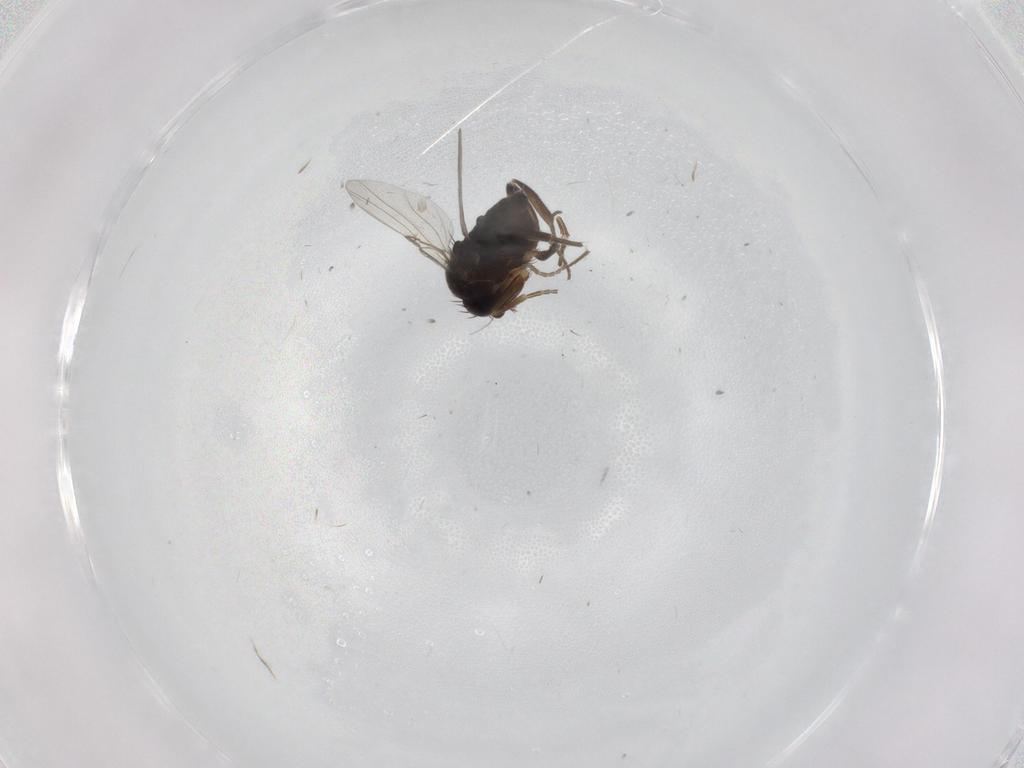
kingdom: Animalia
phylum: Arthropoda
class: Insecta
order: Diptera
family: Phoridae
